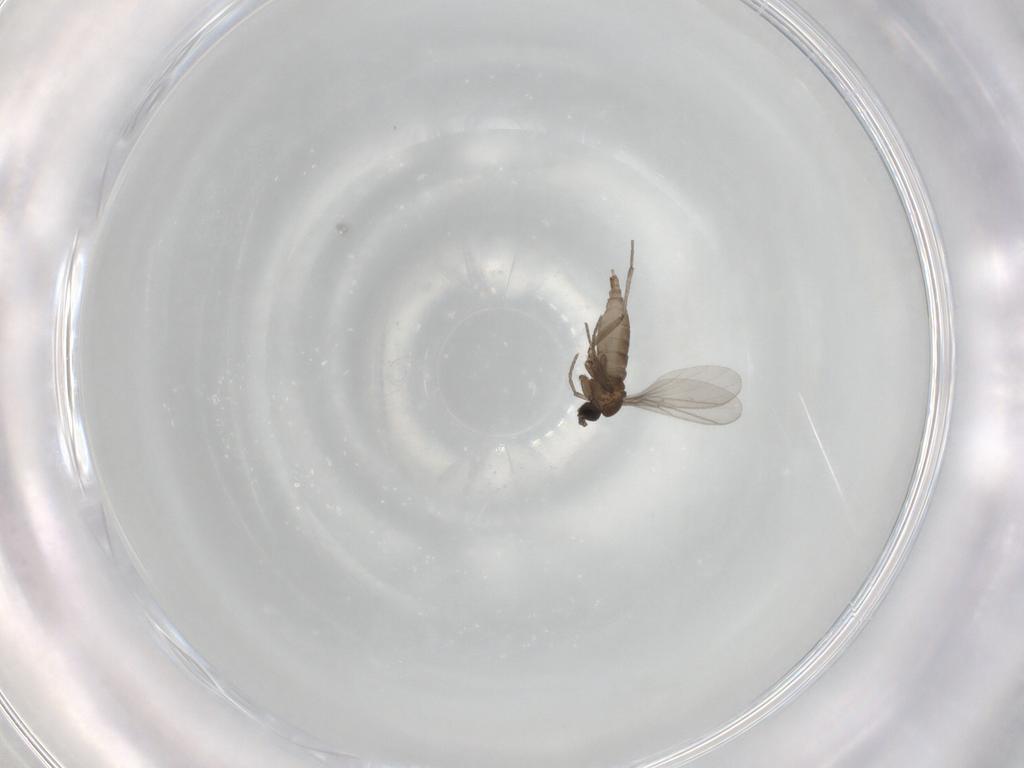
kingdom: Animalia
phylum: Arthropoda
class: Insecta
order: Diptera
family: Sciaridae
